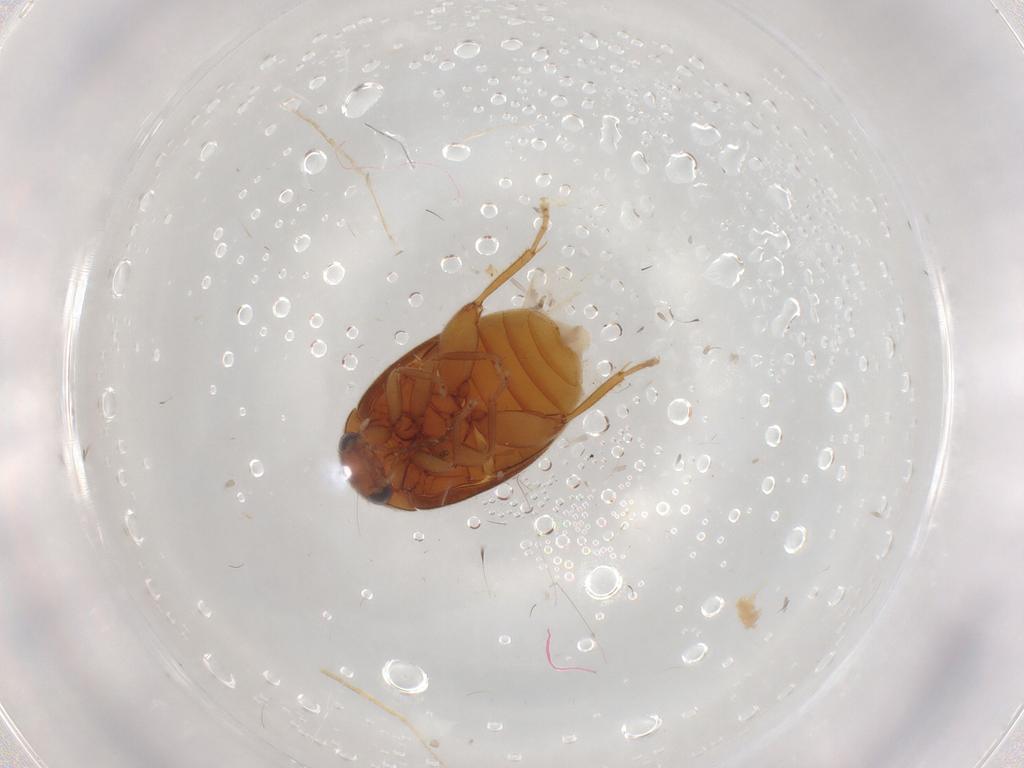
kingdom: Animalia
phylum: Arthropoda
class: Insecta
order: Coleoptera
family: Scirtidae
